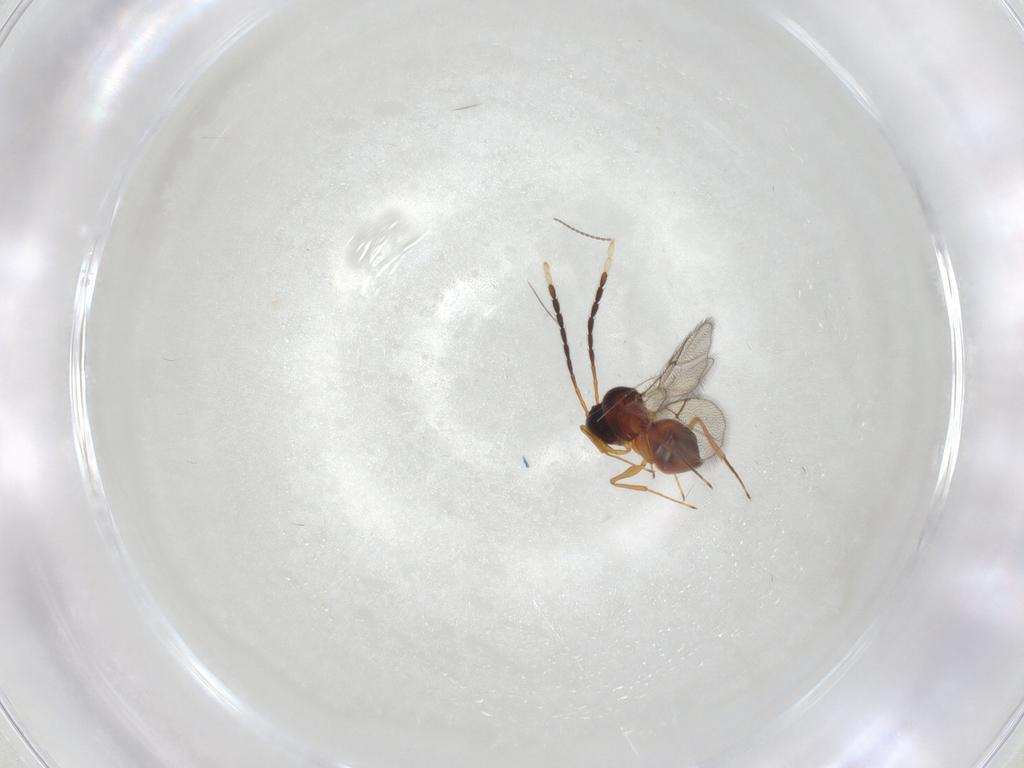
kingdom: Animalia
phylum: Arthropoda
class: Insecta
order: Hymenoptera
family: Figitidae
